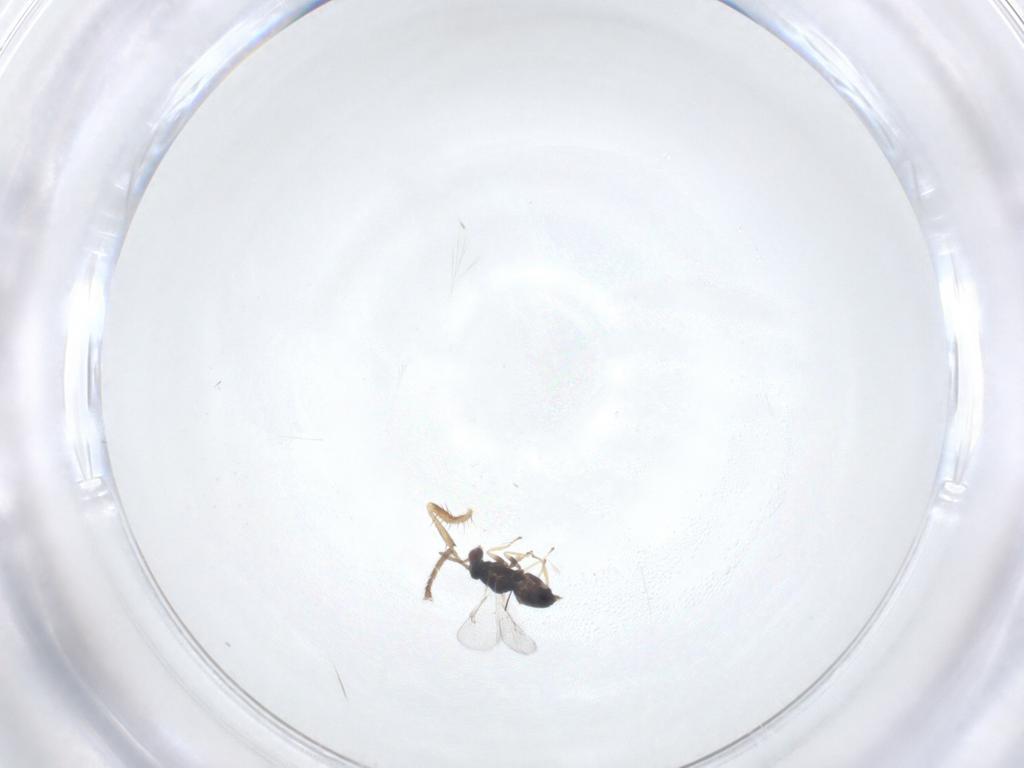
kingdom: Animalia
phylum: Arthropoda
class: Insecta
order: Hymenoptera
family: Eulophidae
